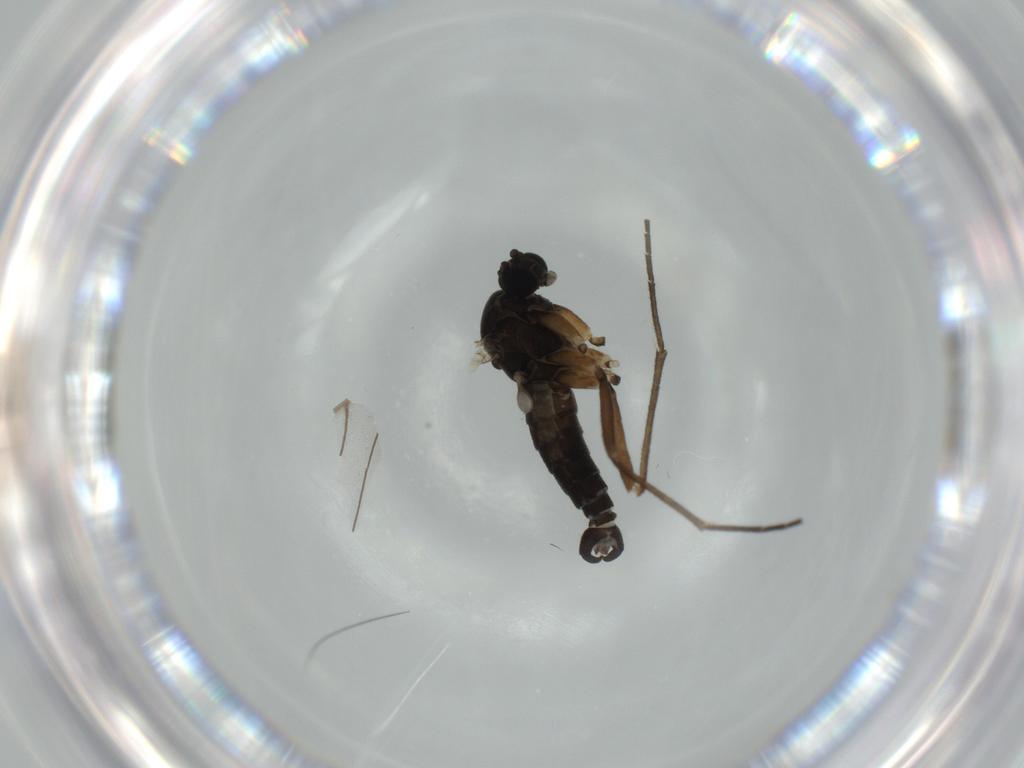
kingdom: Animalia
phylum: Arthropoda
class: Insecta
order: Diptera
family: Sciaridae
